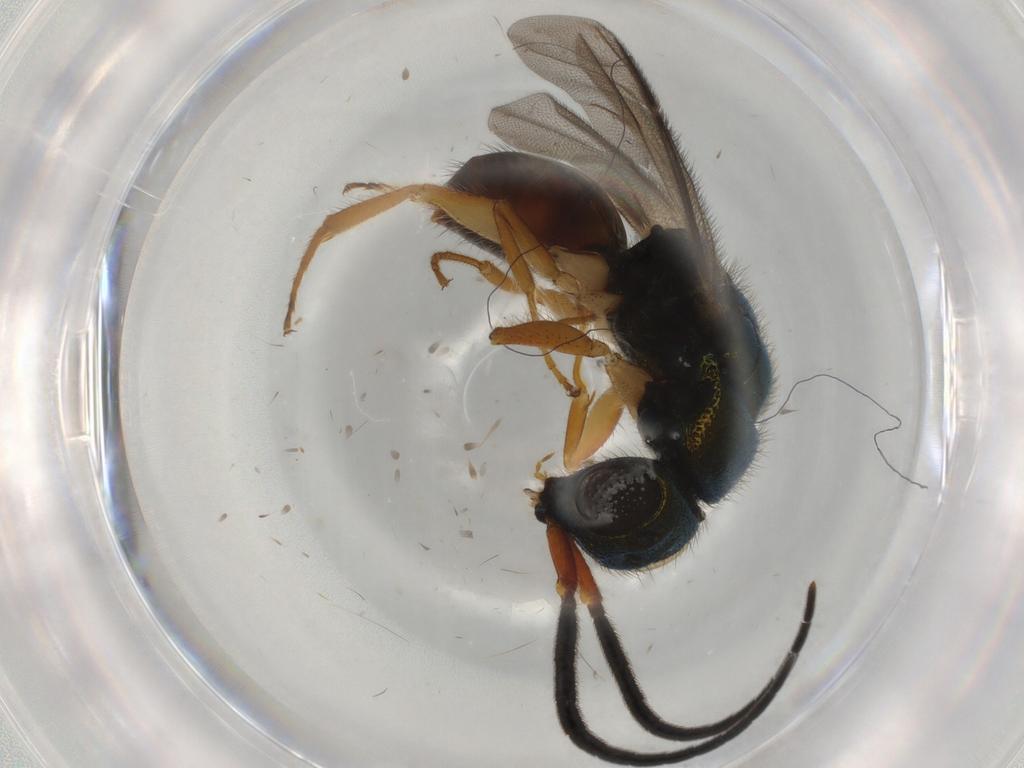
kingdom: Animalia
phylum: Arthropoda
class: Insecta
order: Hymenoptera
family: Chrysididae
